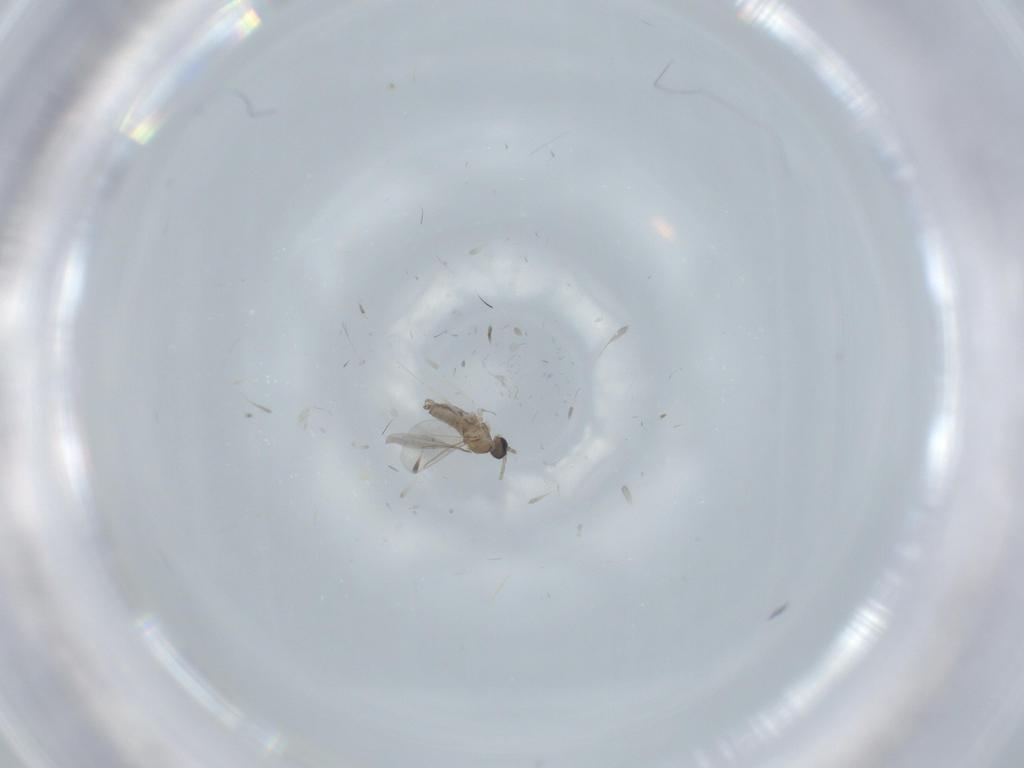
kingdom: Animalia
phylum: Arthropoda
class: Insecta
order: Diptera
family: Cecidomyiidae
